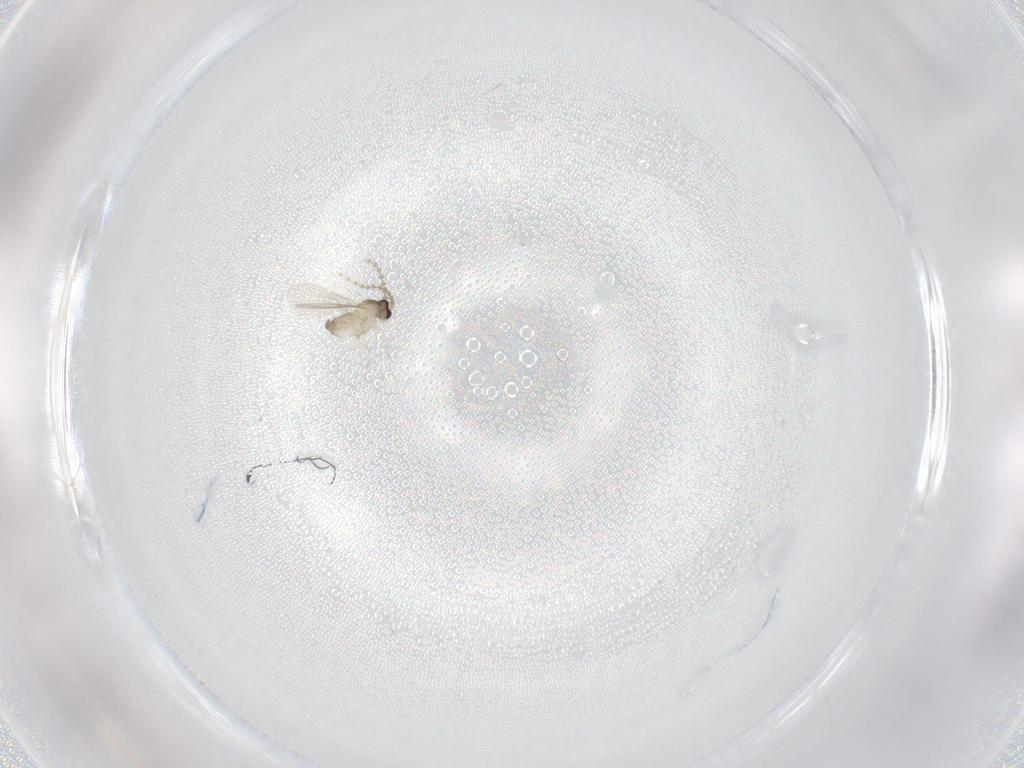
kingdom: Animalia
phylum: Arthropoda
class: Insecta
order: Diptera
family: Cecidomyiidae
